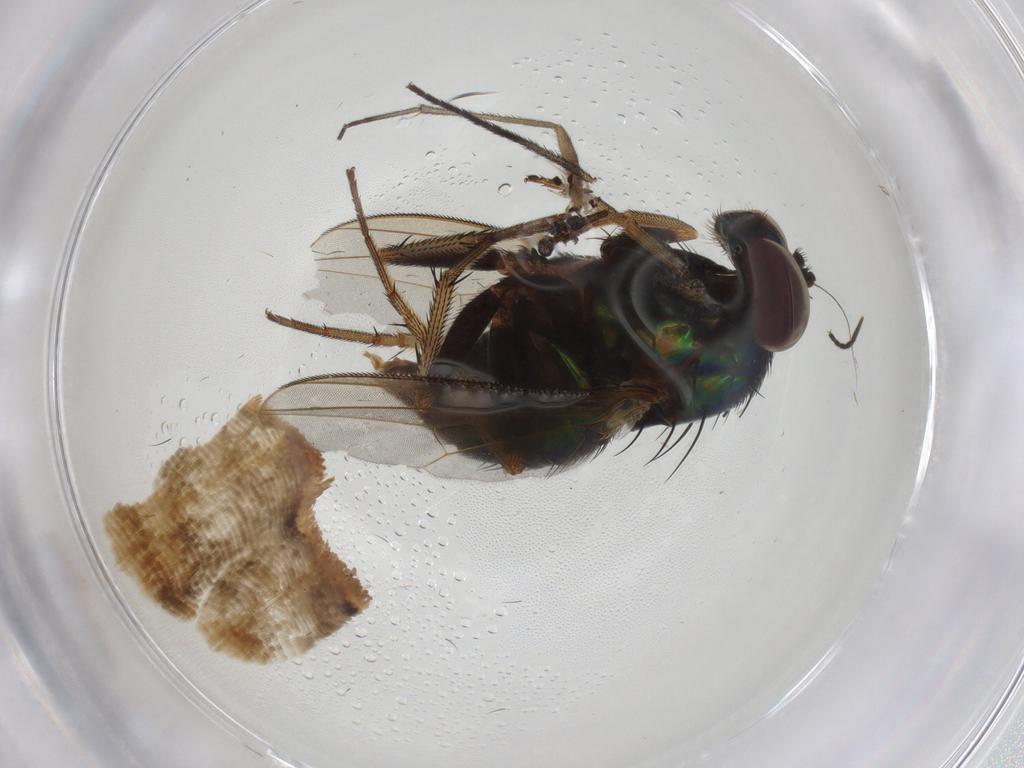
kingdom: Animalia
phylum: Arthropoda
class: Insecta
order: Diptera
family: Dolichopodidae
